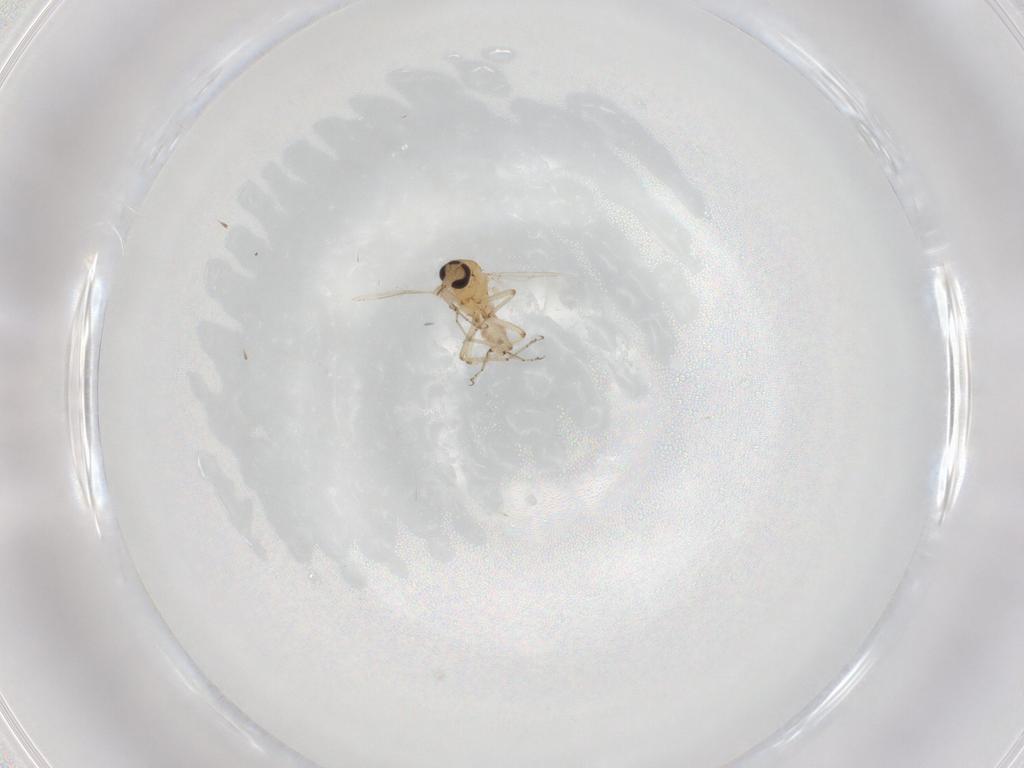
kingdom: Animalia
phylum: Arthropoda
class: Insecta
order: Diptera
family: Ceratopogonidae
